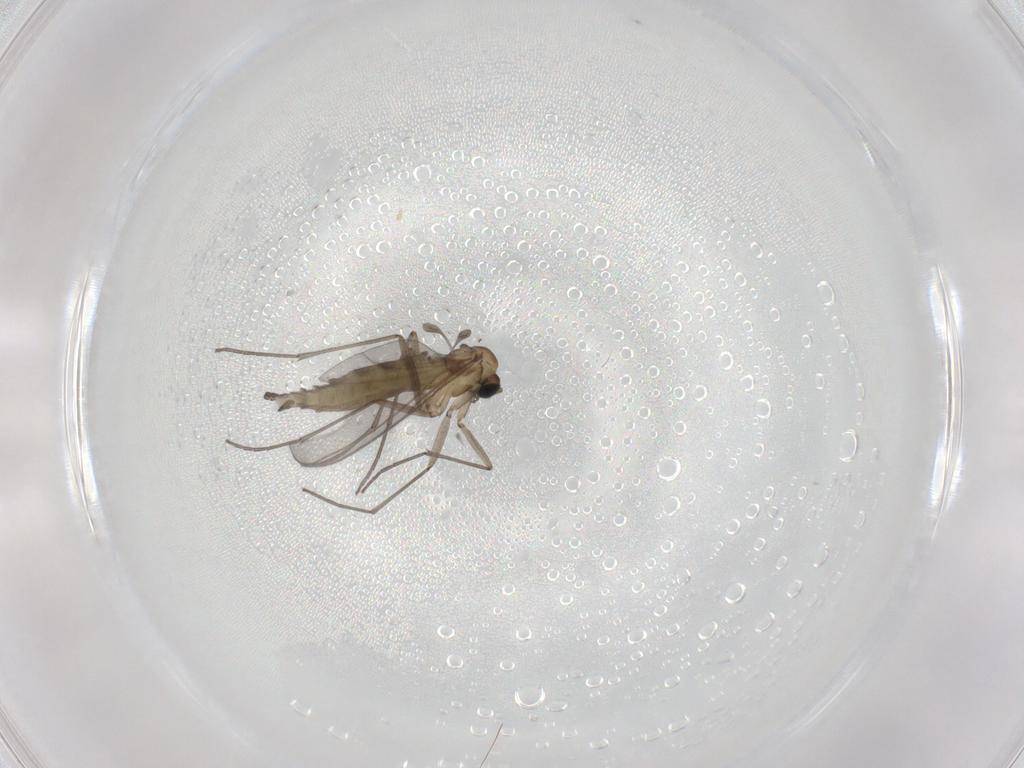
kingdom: Animalia
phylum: Arthropoda
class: Insecta
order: Diptera
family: Sciaridae
